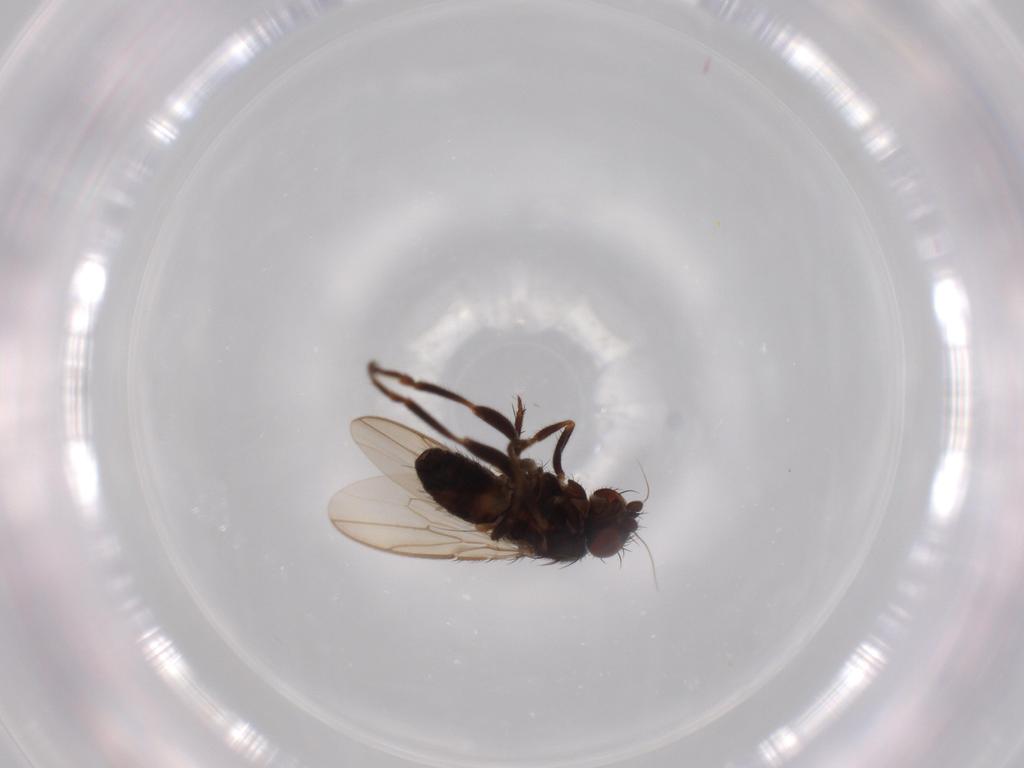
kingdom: Animalia
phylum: Arthropoda
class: Insecta
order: Diptera
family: Sphaeroceridae
